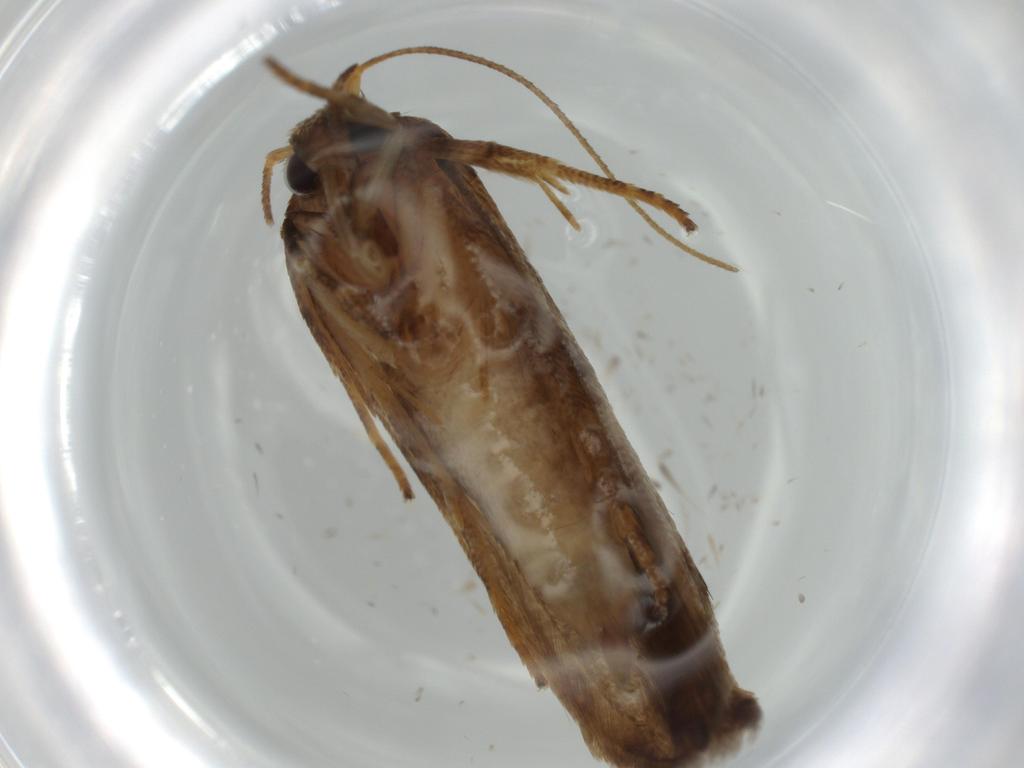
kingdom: Animalia
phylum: Arthropoda
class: Insecta
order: Lepidoptera
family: Blastobasidae
